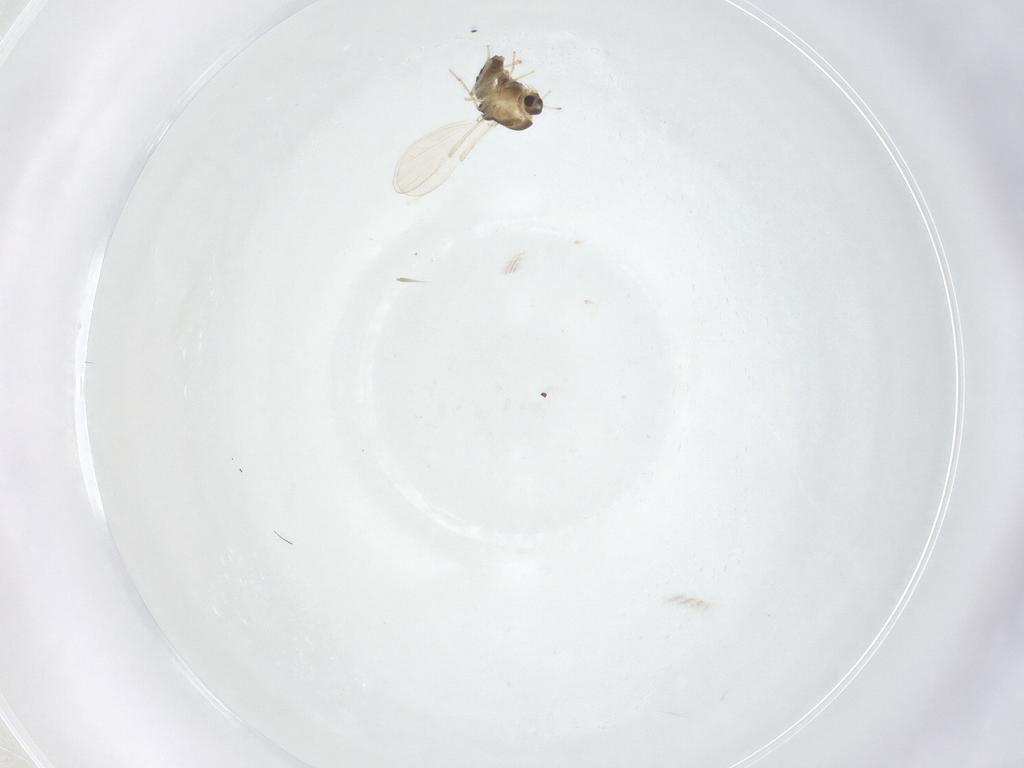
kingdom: Animalia
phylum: Arthropoda
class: Insecta
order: Diptera
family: Chironomidae
